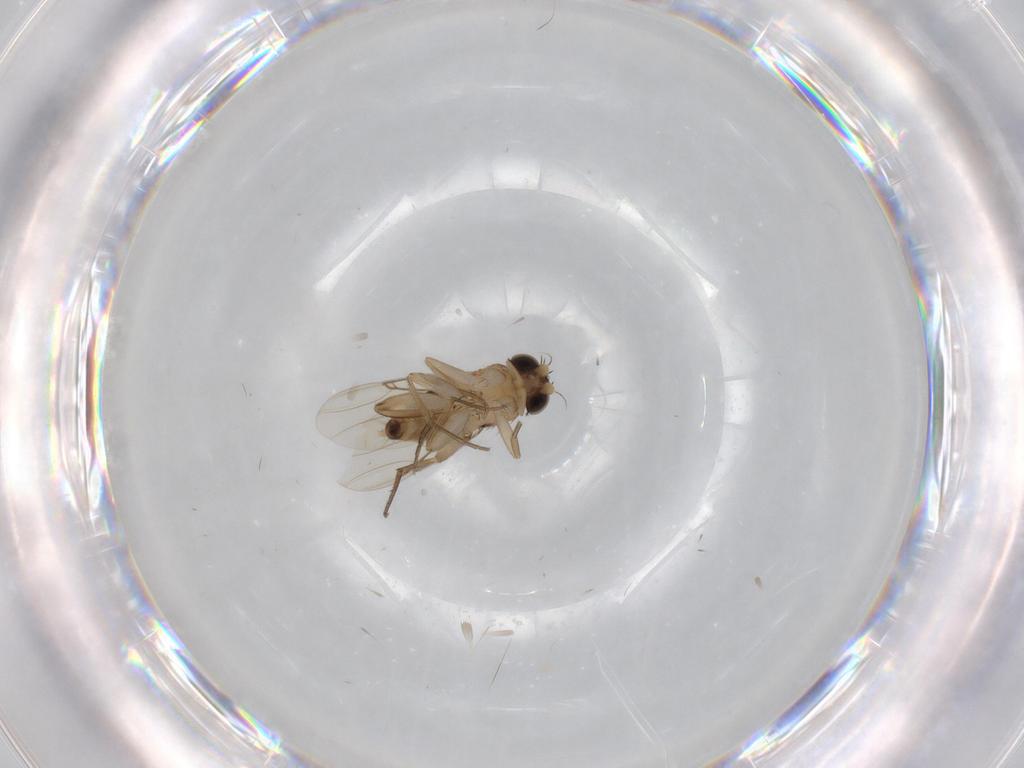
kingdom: Animalia
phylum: Arthropoda
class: Insecta
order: Diptera
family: Phoridae
